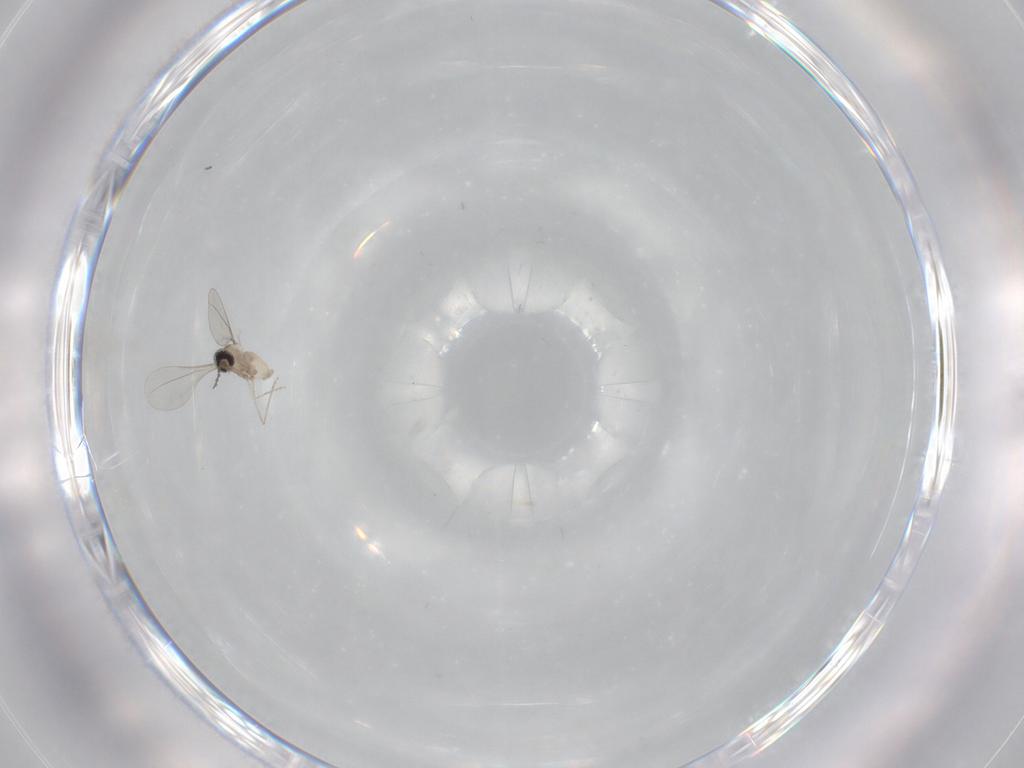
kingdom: Animalia
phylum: Arthropoda
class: Insecta
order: Diptera
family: Cecidomyiidae
